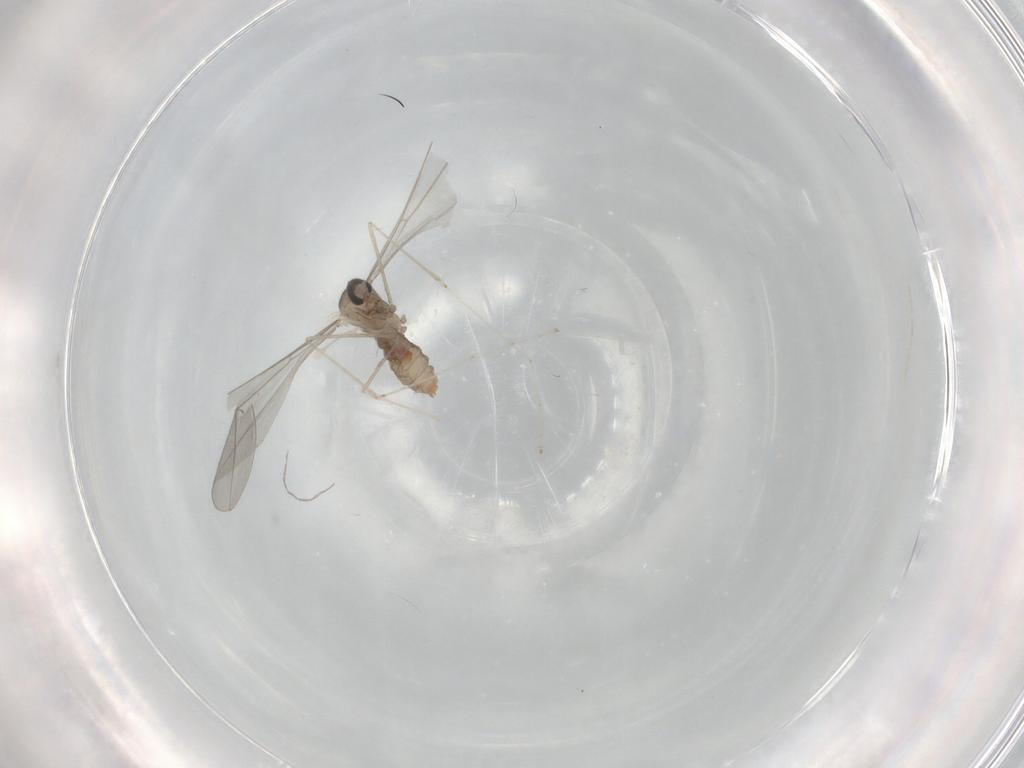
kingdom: Animalia
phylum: Arthropoda
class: Insecta
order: Diptera
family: Cecidomyiidae
